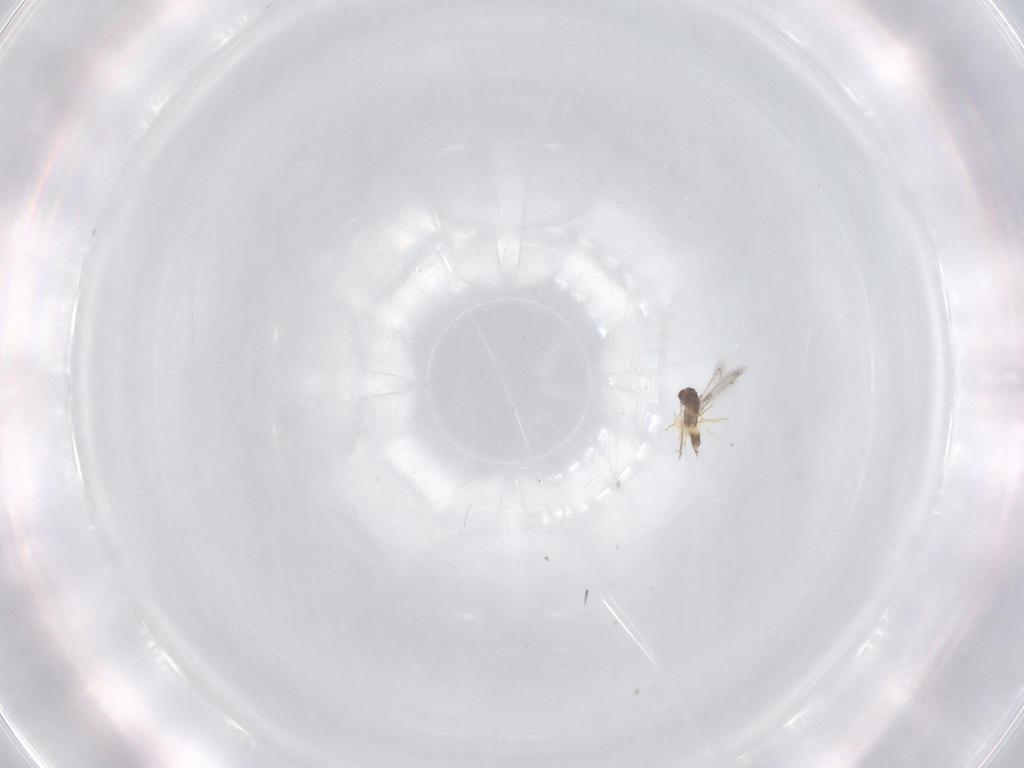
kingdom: Animalia
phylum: Arthropoda
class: Insecta
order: Hymenoptera
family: Mymaridae
